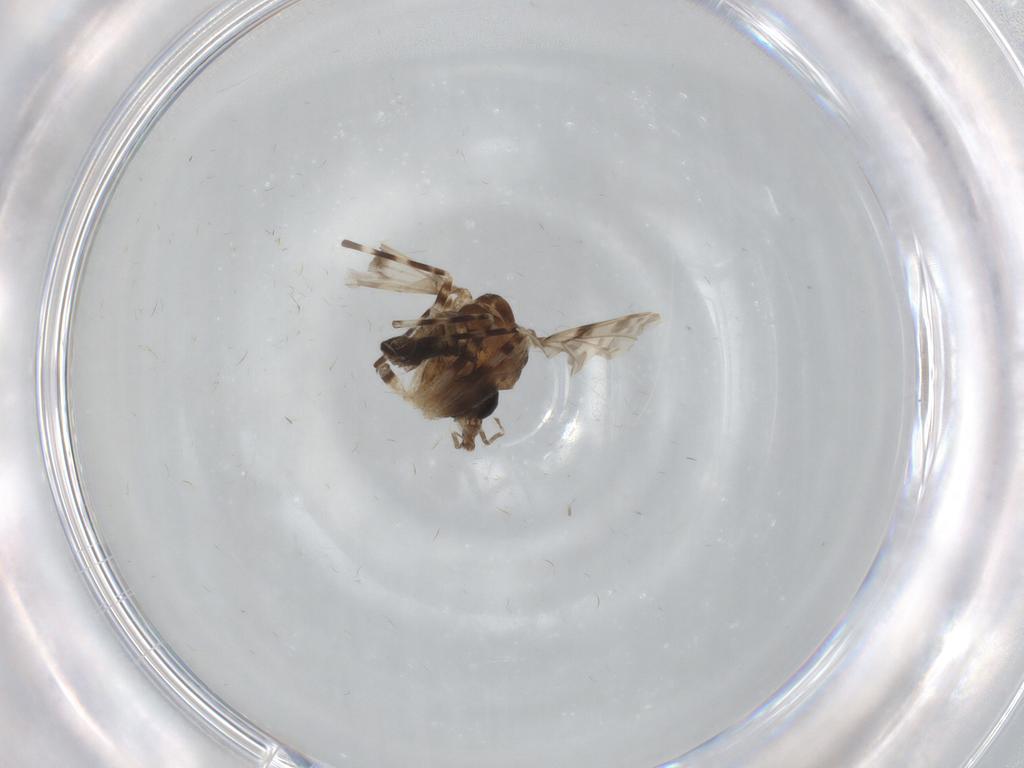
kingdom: Animalia
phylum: Arthropoda
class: Insecta
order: Diptera
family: Chironomidae
